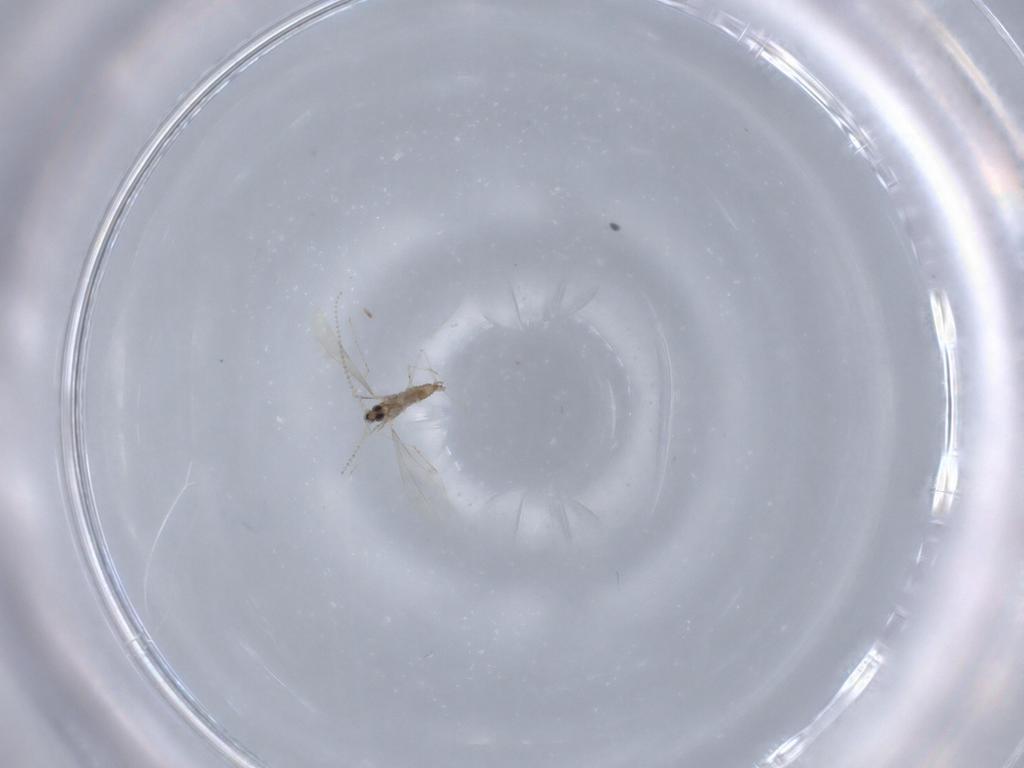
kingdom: Animalia
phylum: Arthropoda
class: Insecta
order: Diptera
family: Cecidomyiidae
